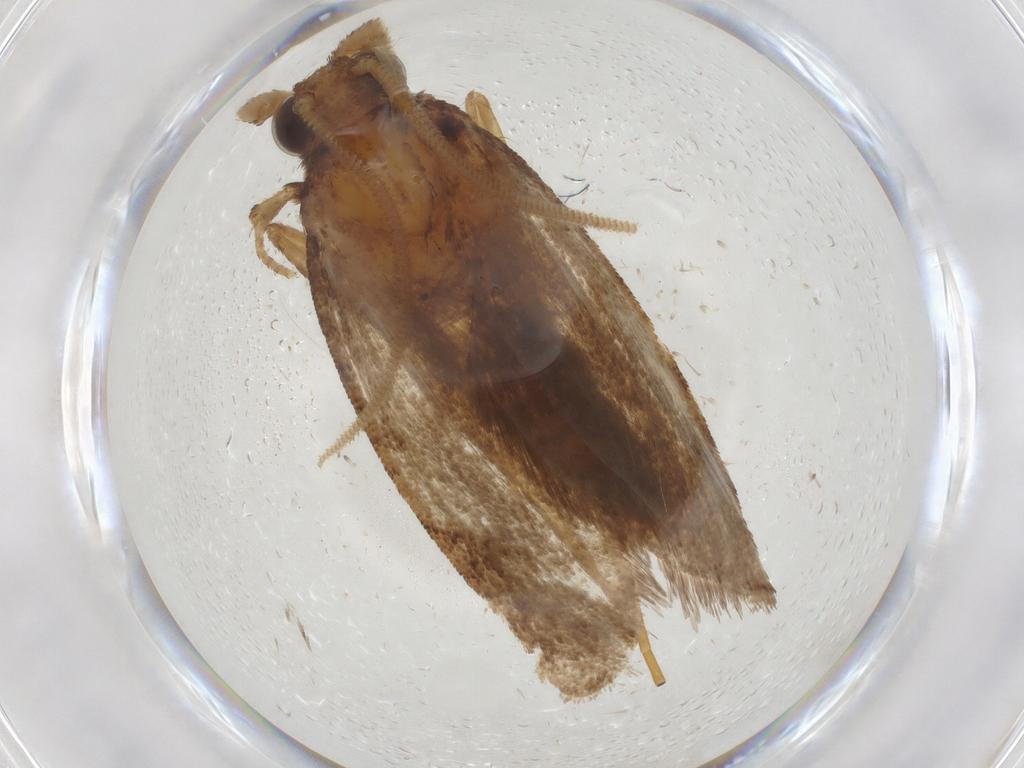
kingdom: Animalia
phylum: Arthropoda
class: Insecta
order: Lepidoptera
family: Tineidae
